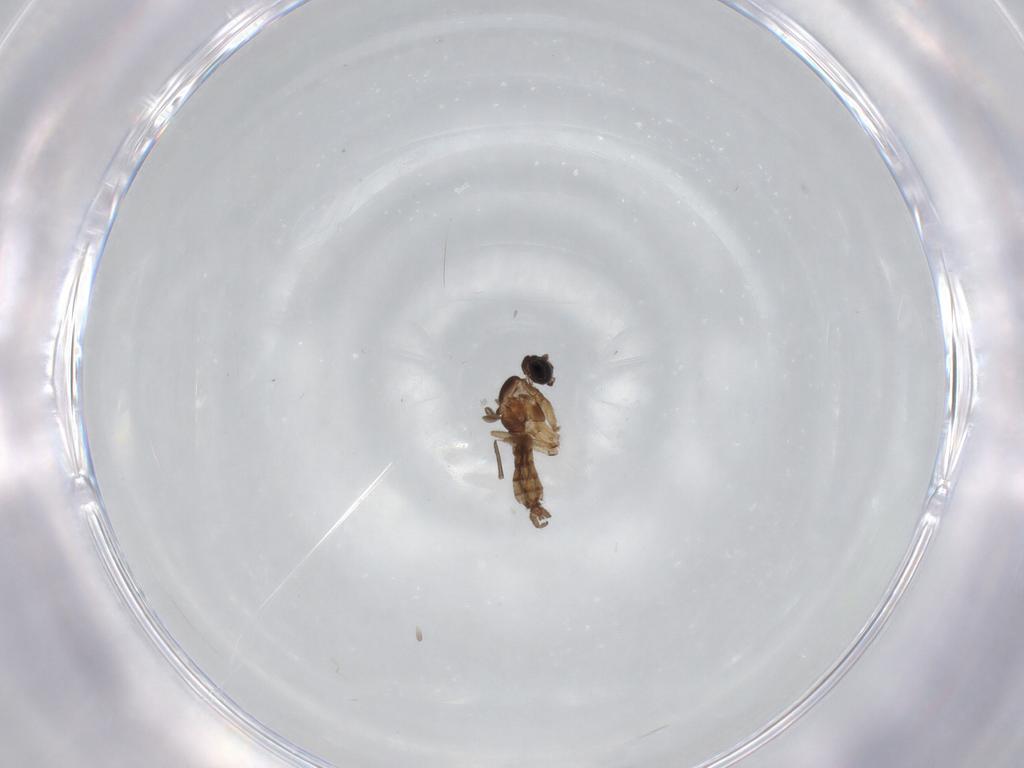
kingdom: Animalia
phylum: Arthropoda
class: Insecta
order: Diptera
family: Sciaridae
